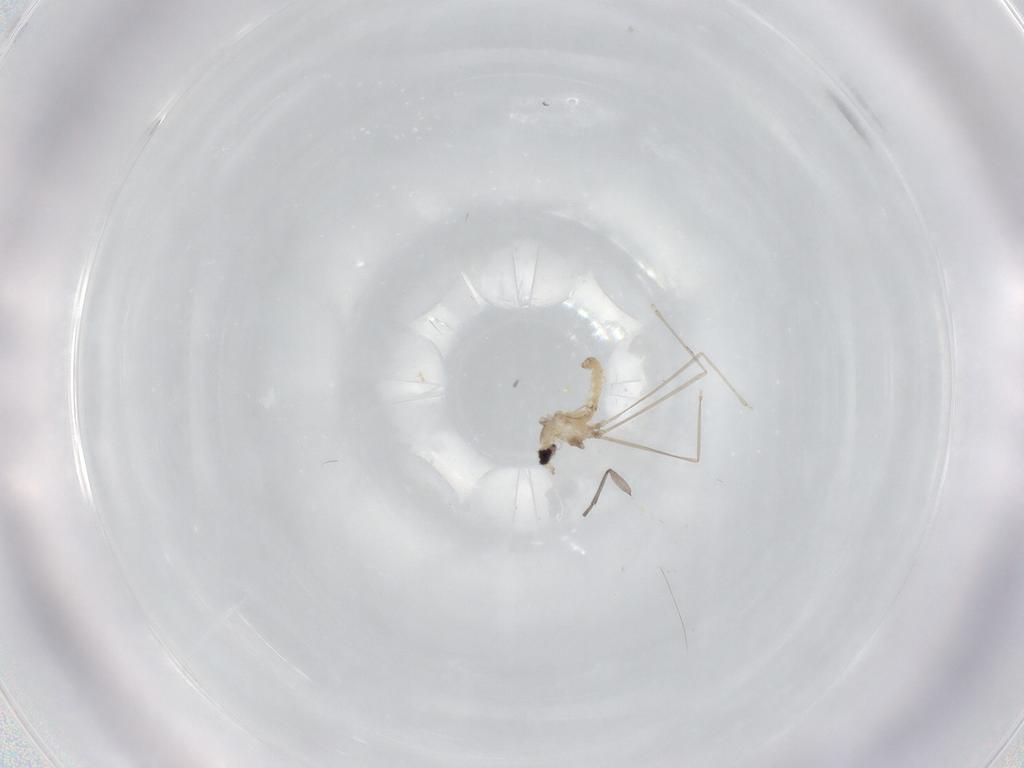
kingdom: Animalia
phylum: Arthropoda
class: Insecta
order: Diptera
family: Cecidomyiidae
